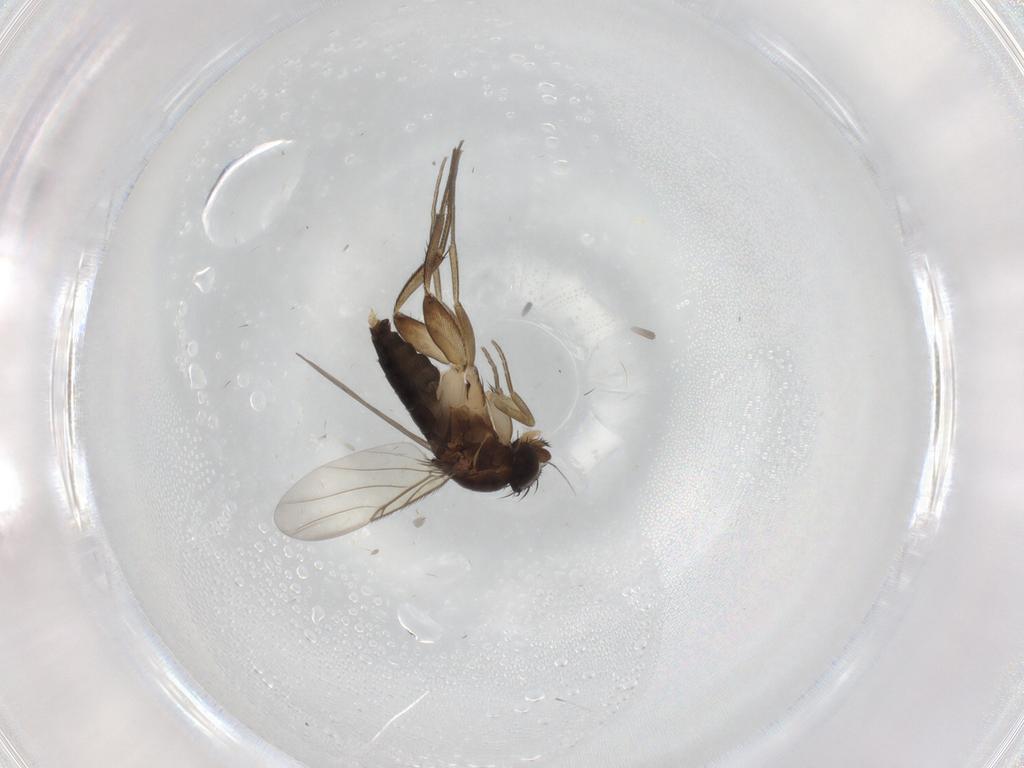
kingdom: Animalia
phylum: Arthropoda
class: Insecta
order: Diptera
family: Phoridae
